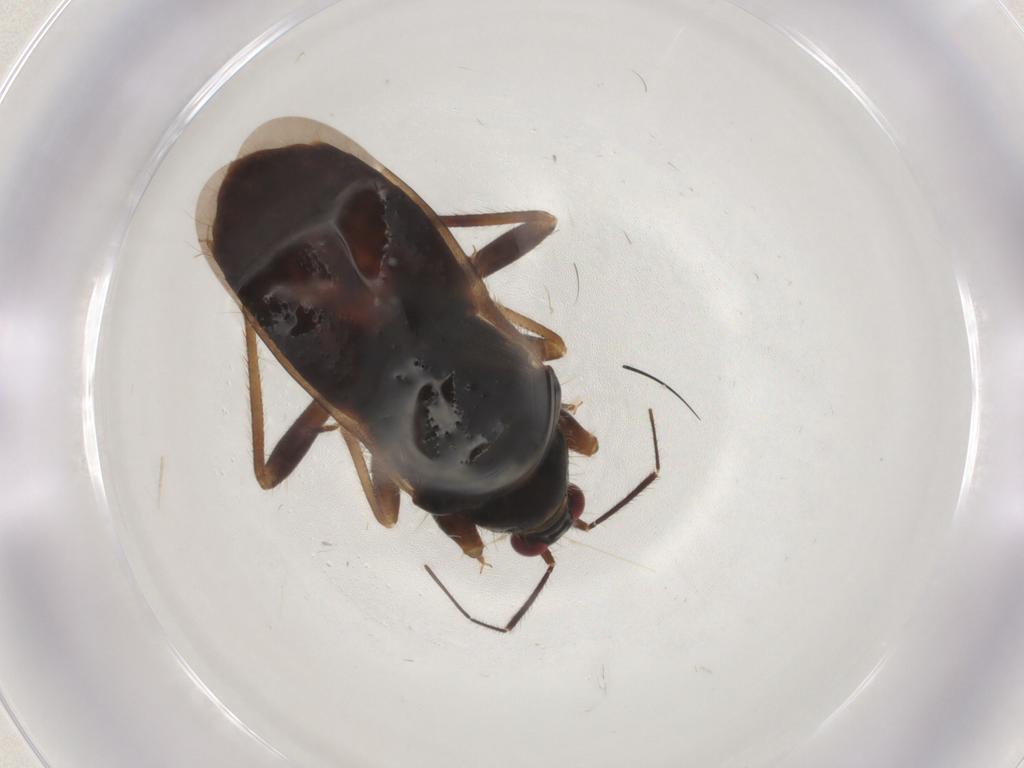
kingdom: Animalia
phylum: Arthropoda
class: Insecta
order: Hemiptera
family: Nabidae
